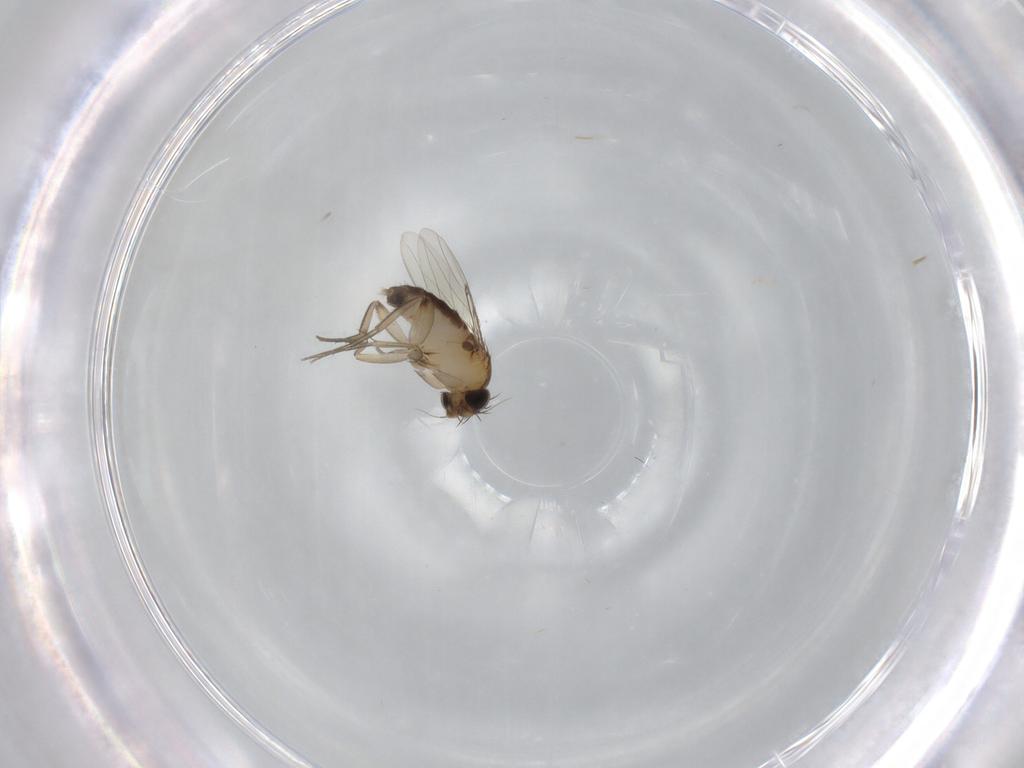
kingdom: Animalia
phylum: Arthropoda
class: Insecta
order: Diptera
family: Phoridae
